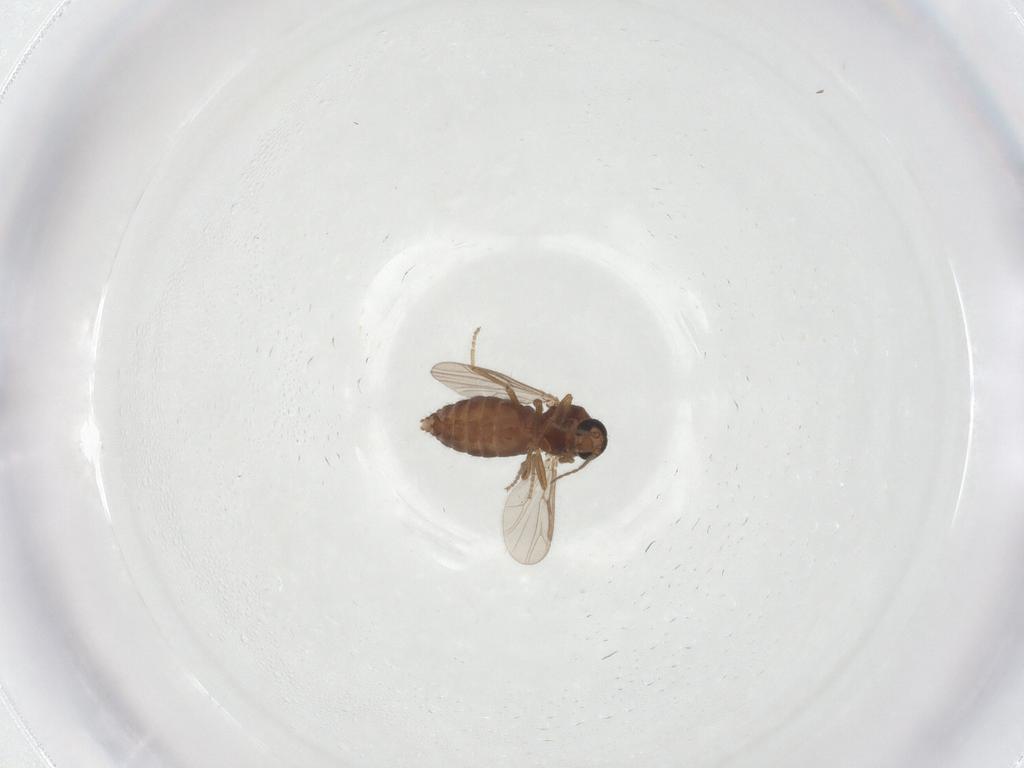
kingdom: Animalia
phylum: Arthropoda
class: Insecta
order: Diptera
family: Ceratopogonidae
